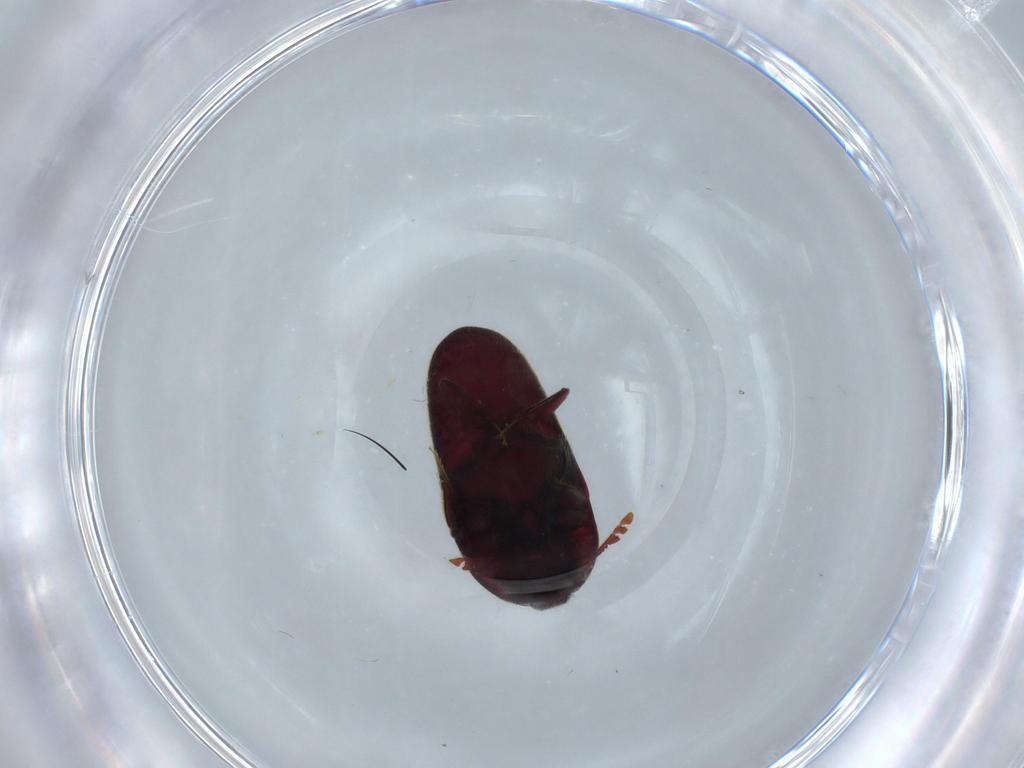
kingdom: Animalia
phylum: Arthropoda
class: Insecta
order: Coleoptera
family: Throscidae
